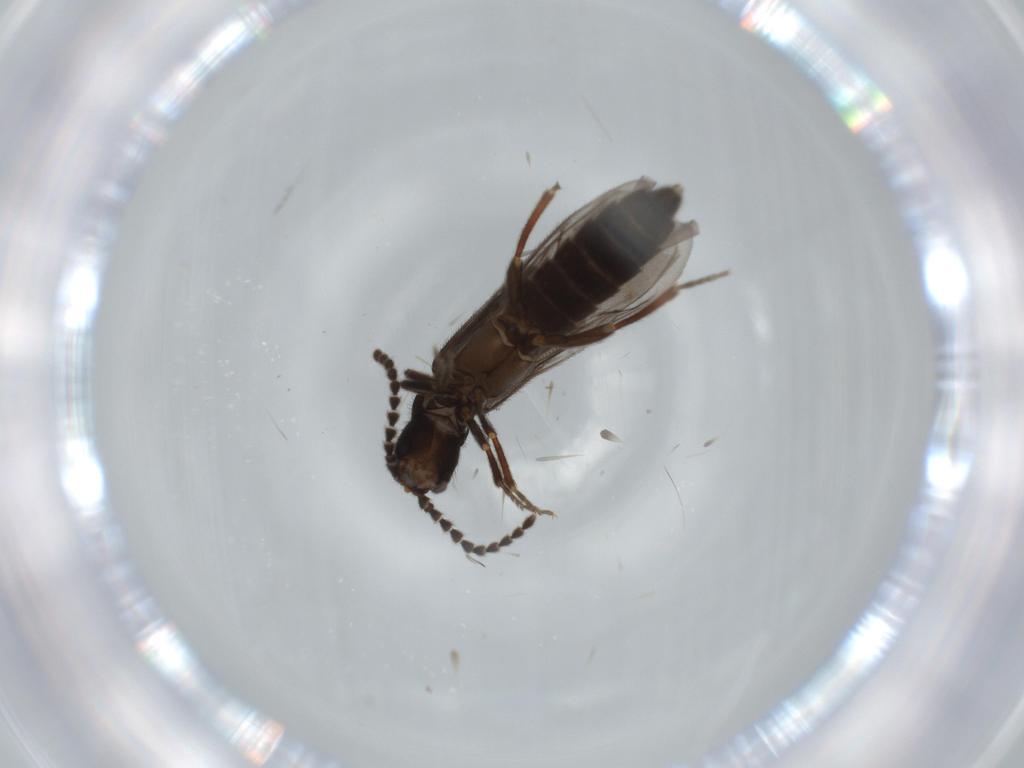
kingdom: Animalia
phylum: Arthropoda
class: Insecta
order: Coleoptera
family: Omethidae
